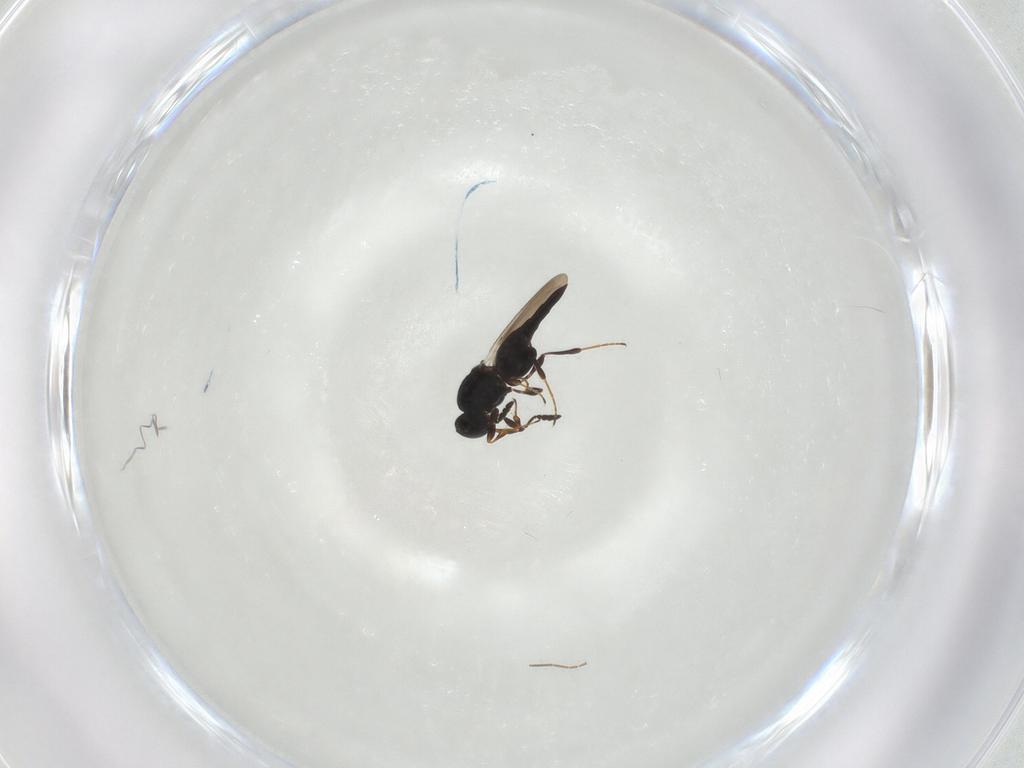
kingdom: Animalia
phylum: Arthropoda
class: Insecta
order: Hymenoptera
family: Platygastridae
